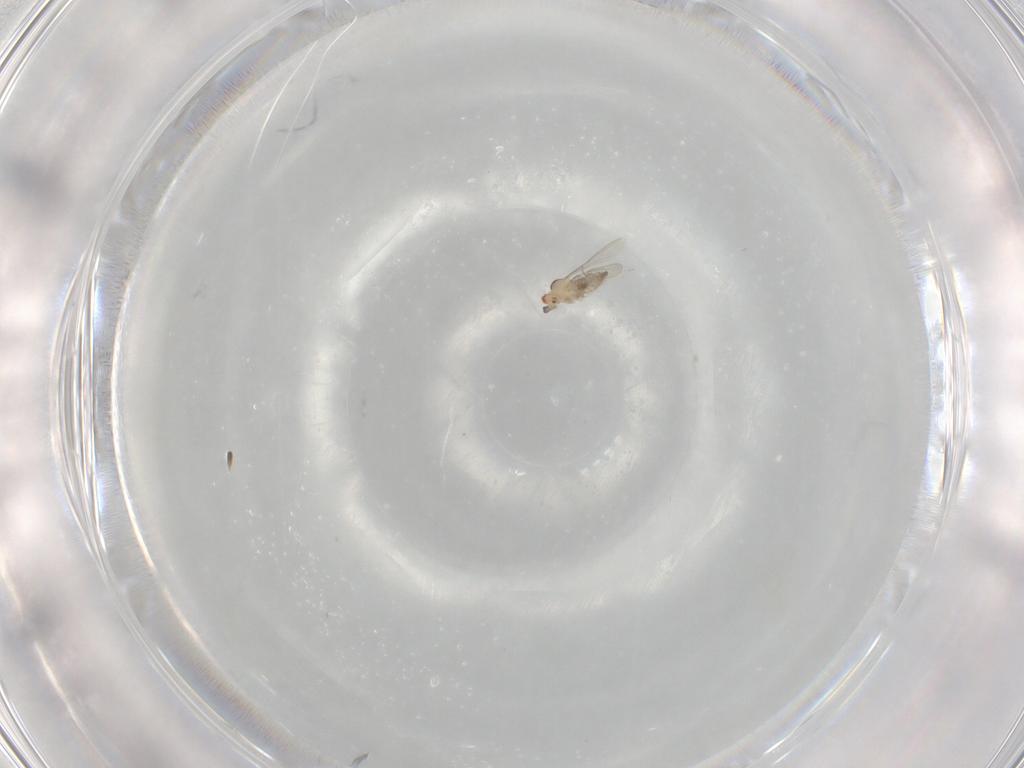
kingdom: Animalia
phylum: Arthropoda
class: Insecta
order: Diptera
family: Cecidomyiidae
